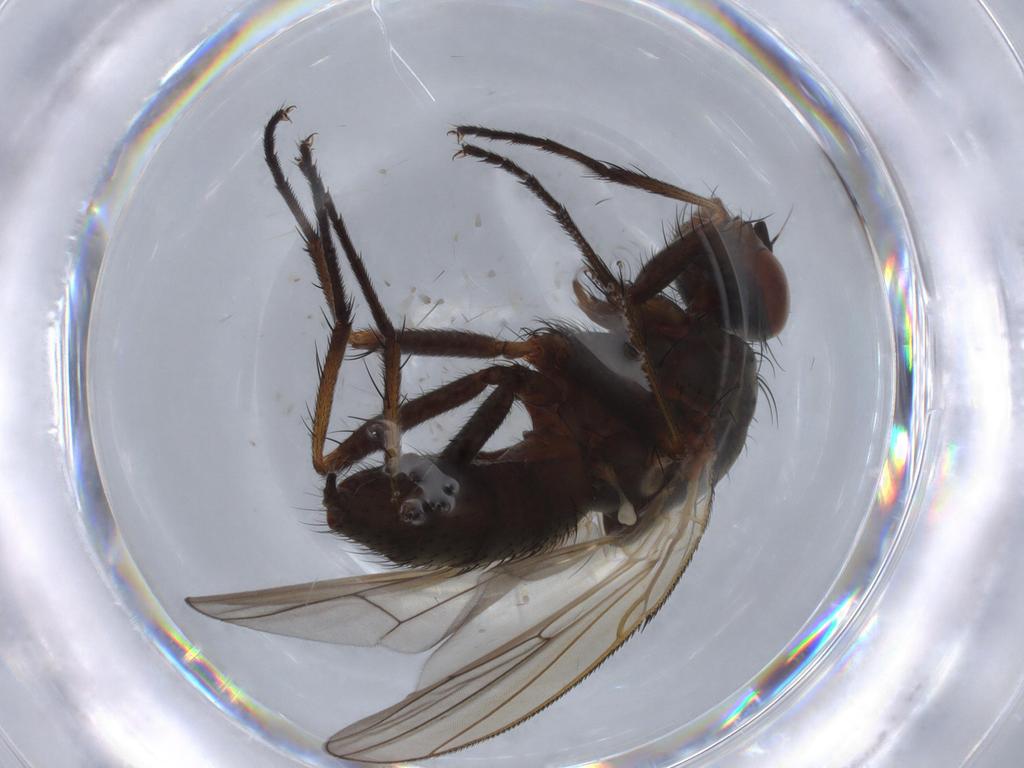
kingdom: Animalia
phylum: Arthropoda
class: Insecta
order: Diptera
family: Anthomyiidae
